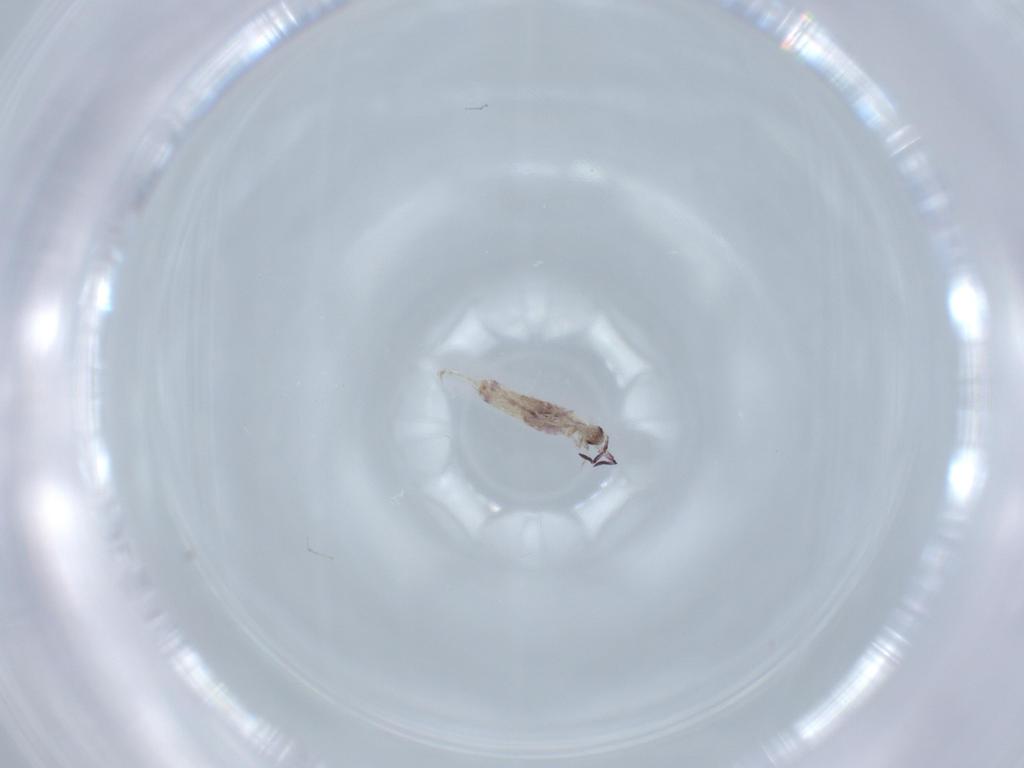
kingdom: Animalia
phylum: Arthropoda
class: Collembola
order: Poduromorpha
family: Hypogastruridae
